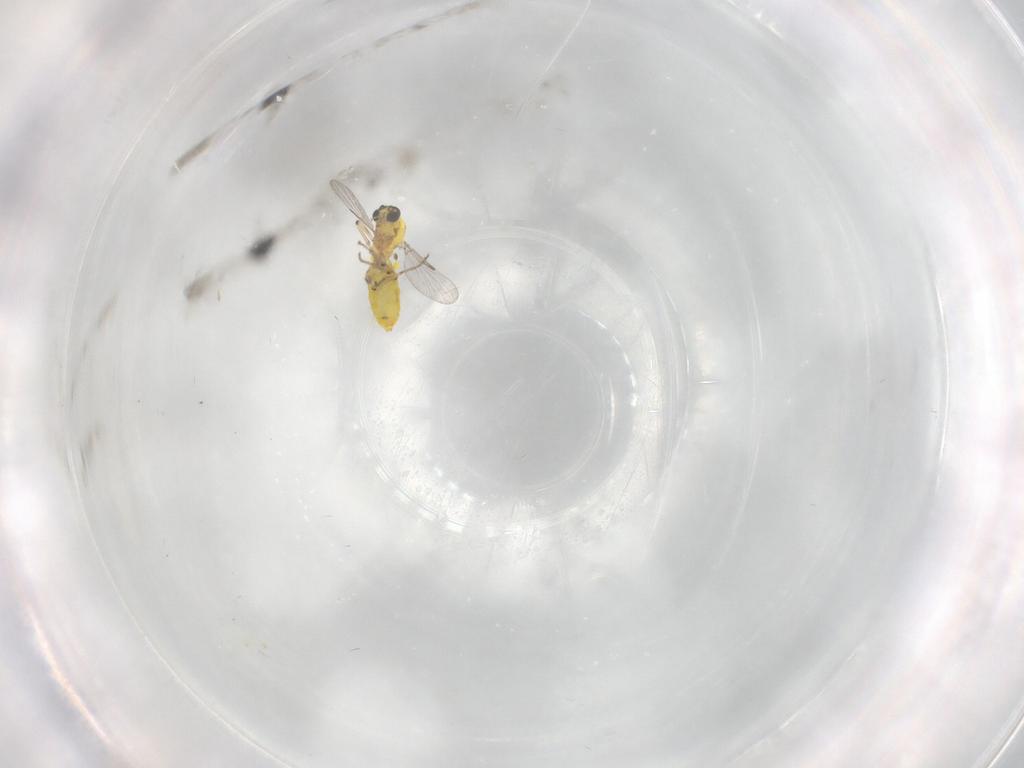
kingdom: Animalia
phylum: Arthropoda
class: Insecta
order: Diptera
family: Ceratopogonidae
